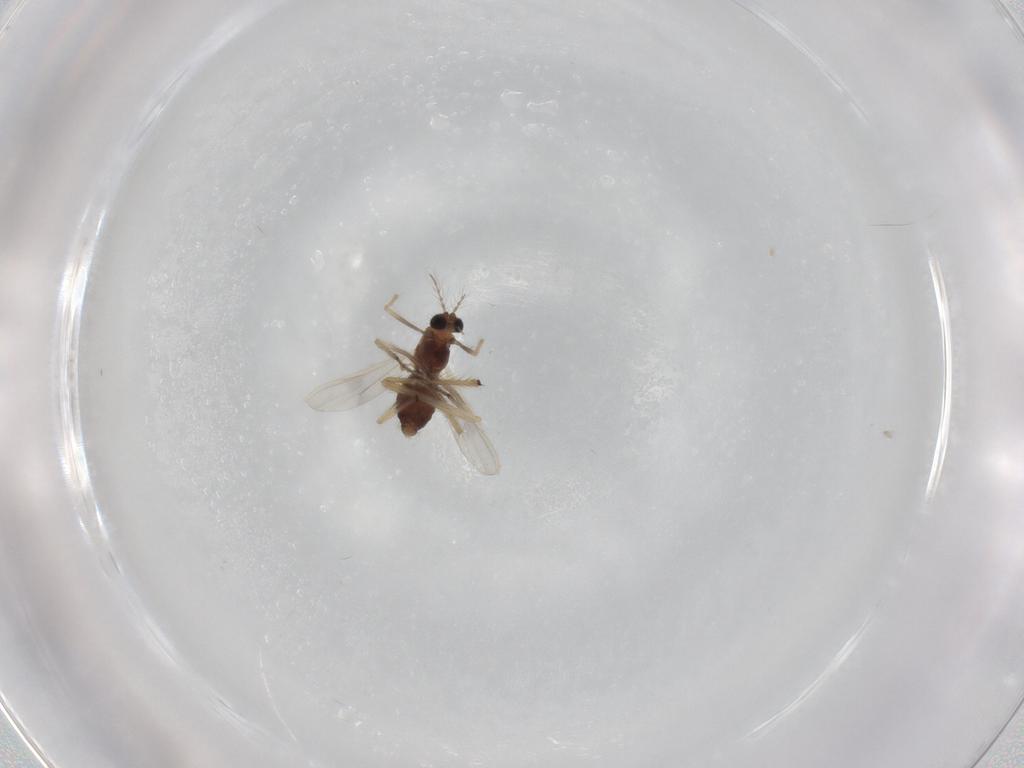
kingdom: Animalia
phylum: Arthropoda
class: Insecta
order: Diptera
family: Chironomidae
